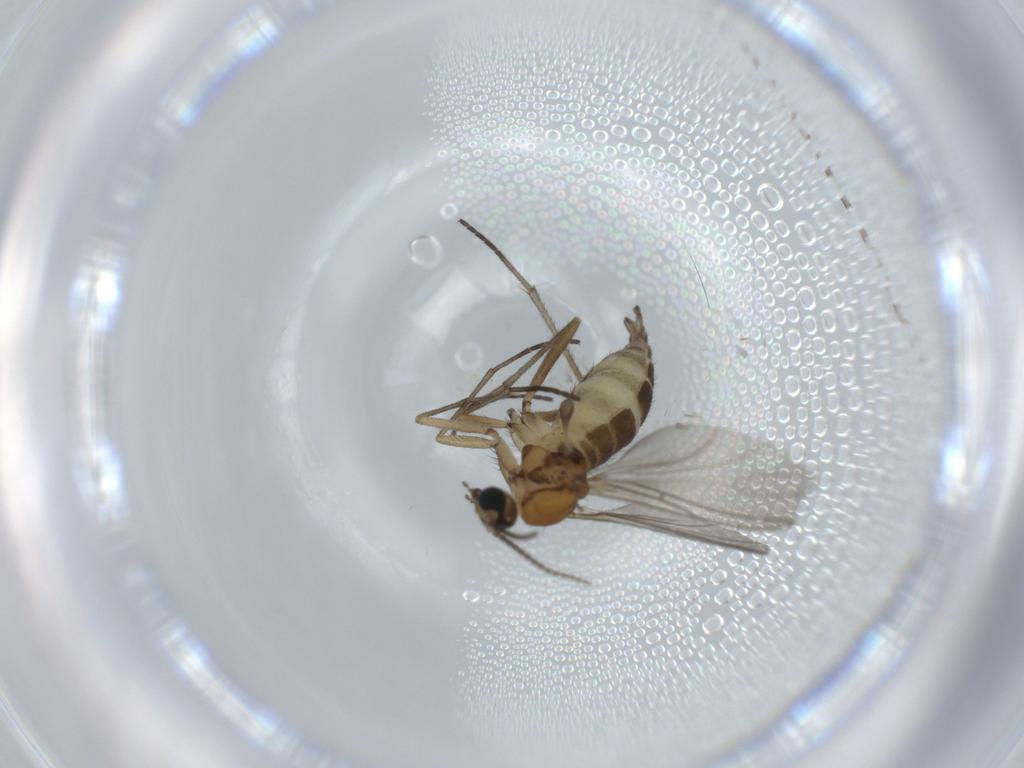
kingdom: Animalia
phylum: Arthropoda
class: Insecta
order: Diptera
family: Sciaridae
